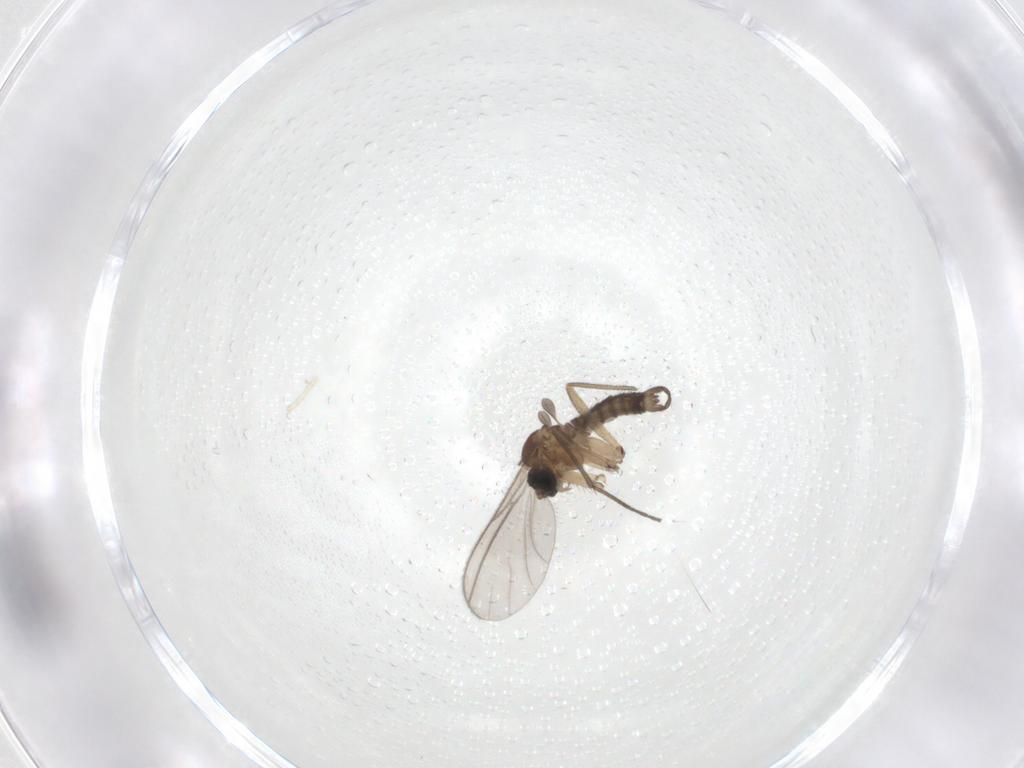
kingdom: Animalia
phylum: Arthropoda
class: Insecta
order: Diptera
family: Sciaridae
